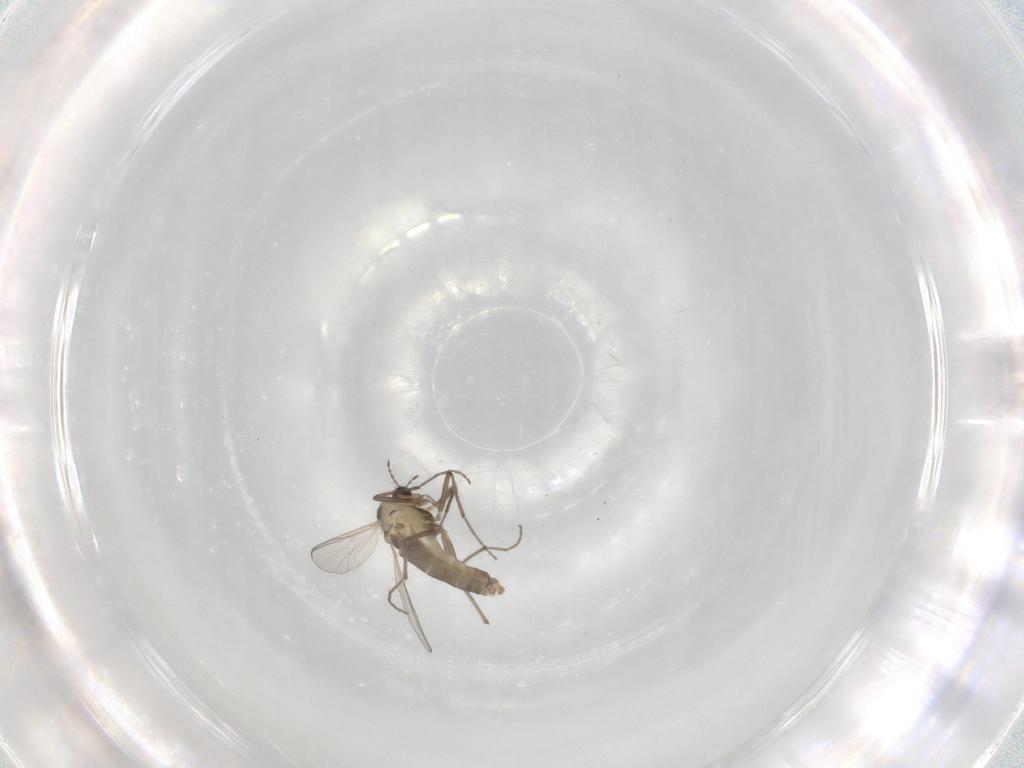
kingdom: Animalia
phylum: Arthropoda
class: Insecta
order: Diptera
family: Chironomidae
